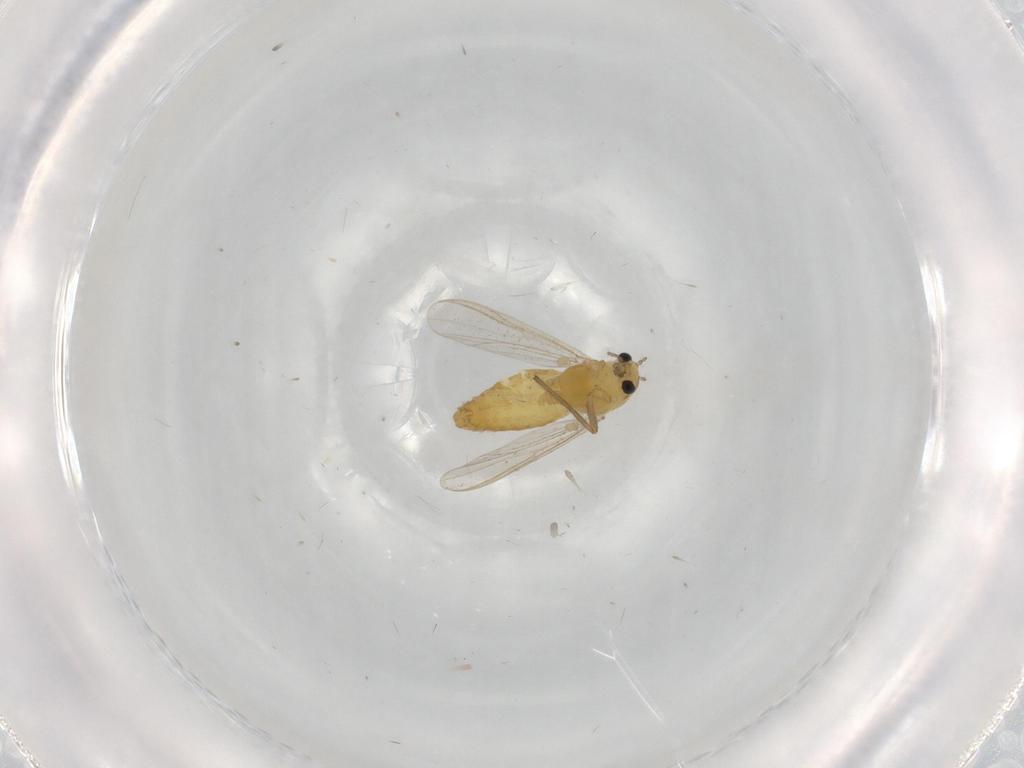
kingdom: Animalia
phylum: Arthropoda
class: Insecta
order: Diptera
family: Chironomidae
